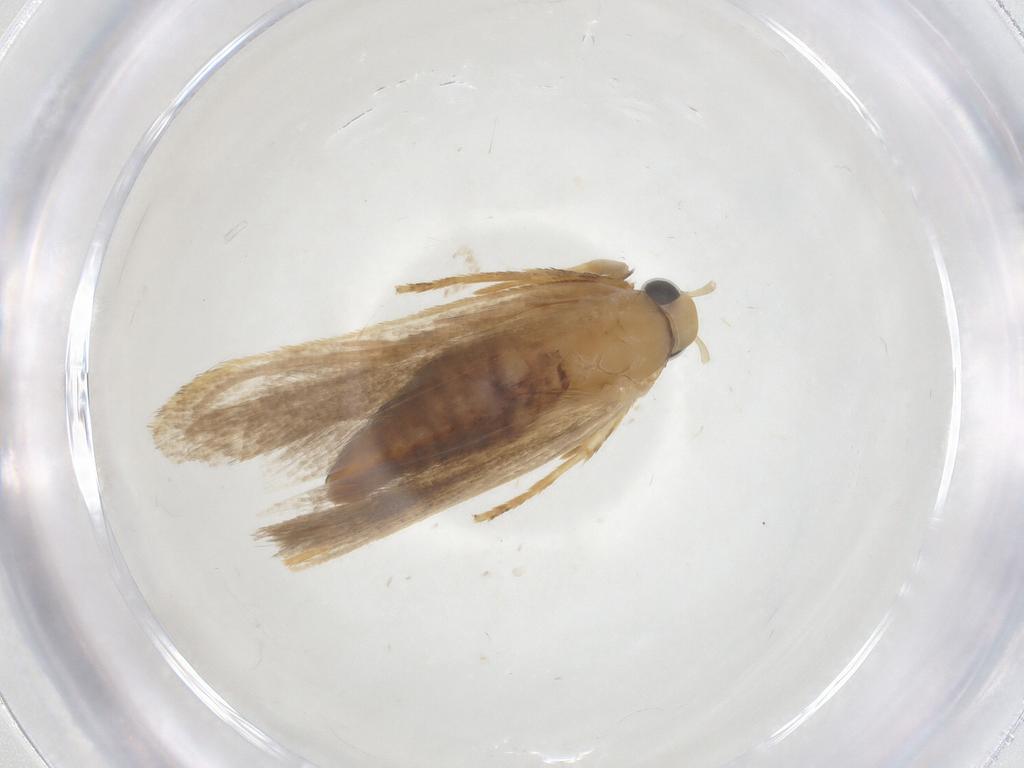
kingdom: Animalia
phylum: Arthropoda
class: Insecta
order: Lepidoptera
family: Gelechiidae
